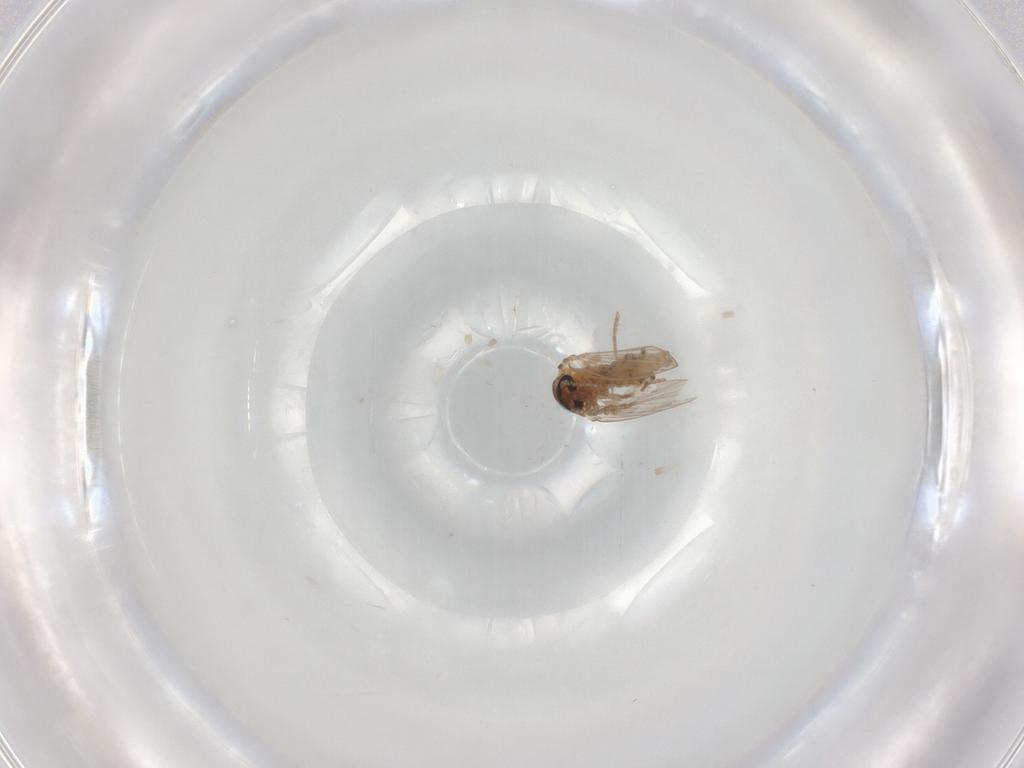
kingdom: Animalia
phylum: Arthropoda
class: Insecta
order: Diptera
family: Psychodidae
